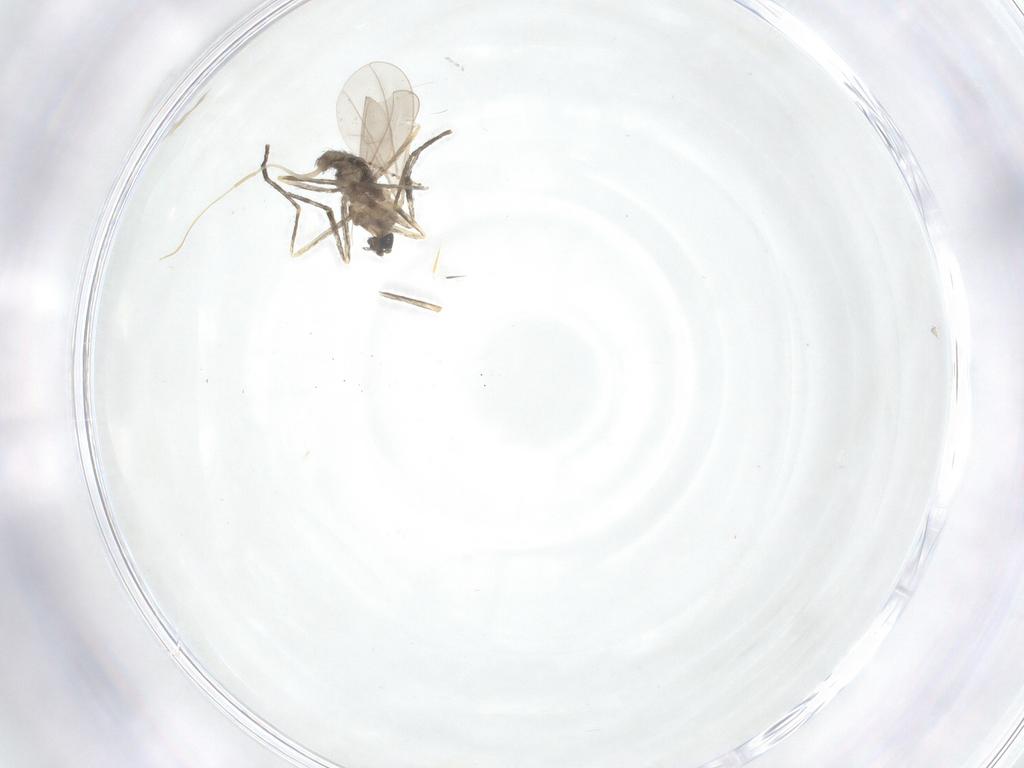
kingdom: Animalia
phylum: Arthropoda
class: Insecta
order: Diptera
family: Cecidomyiidae
